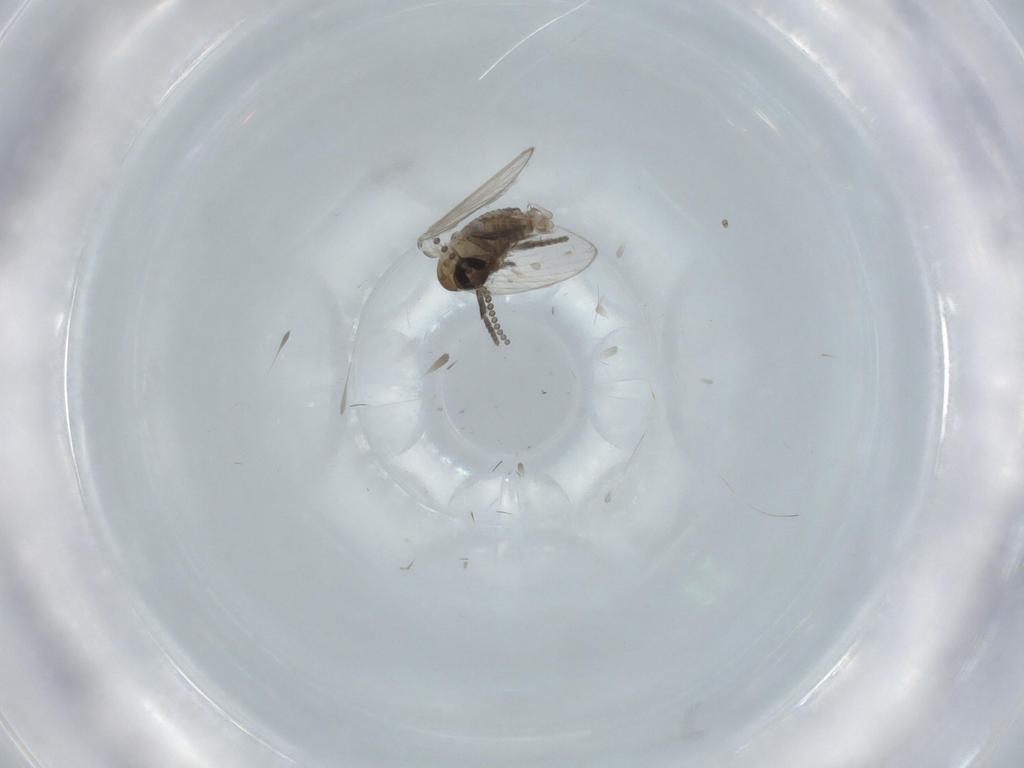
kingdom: Animalia
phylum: Arthropoda
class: Insecta
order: Diptera
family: Psychodidae
